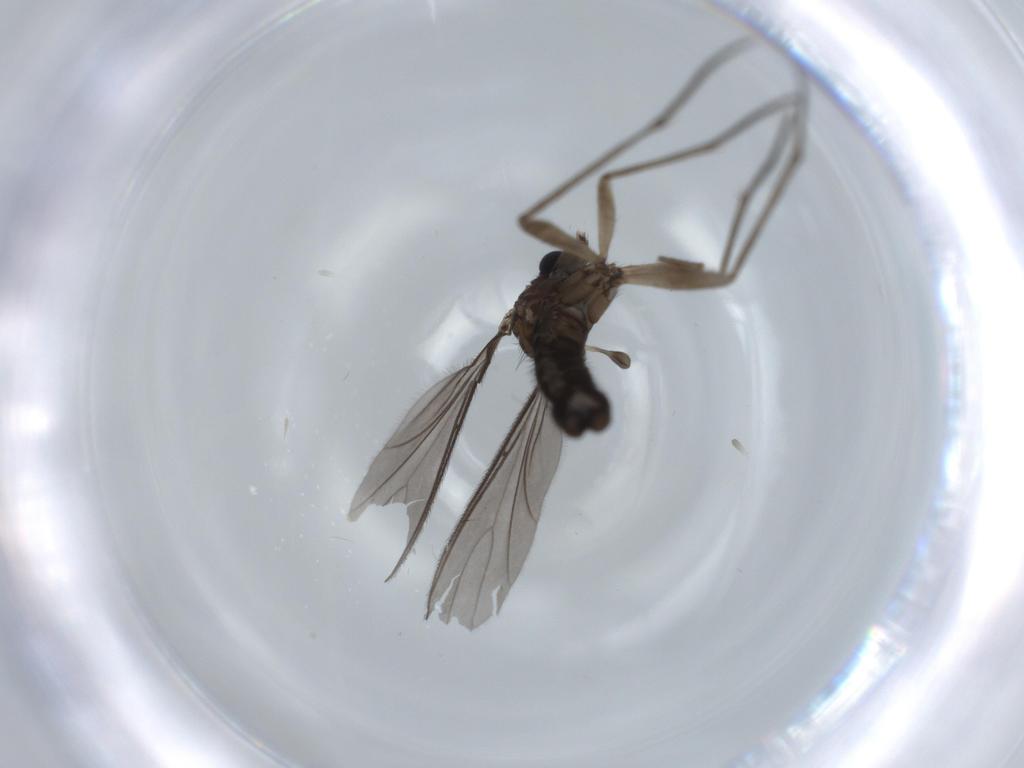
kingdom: Animalia
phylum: Arthropoda
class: Insecta
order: Diptera
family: Sciaridae
